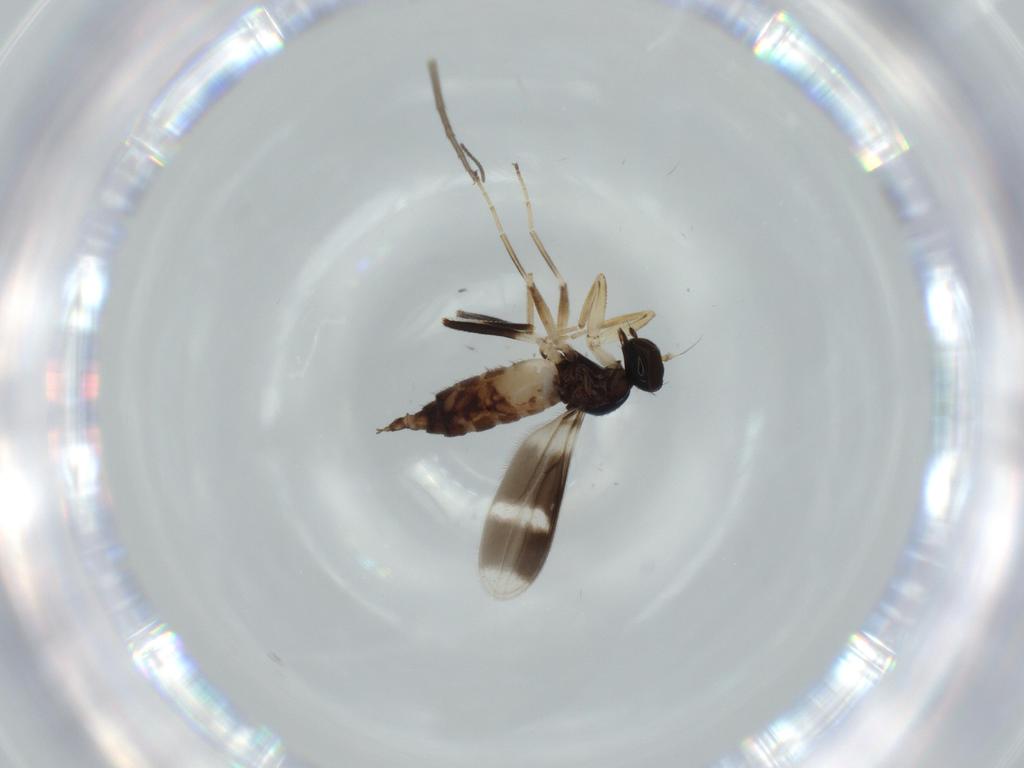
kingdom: Animalia
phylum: Arthropoda
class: Insecta
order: Diptera
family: Hybotidae
